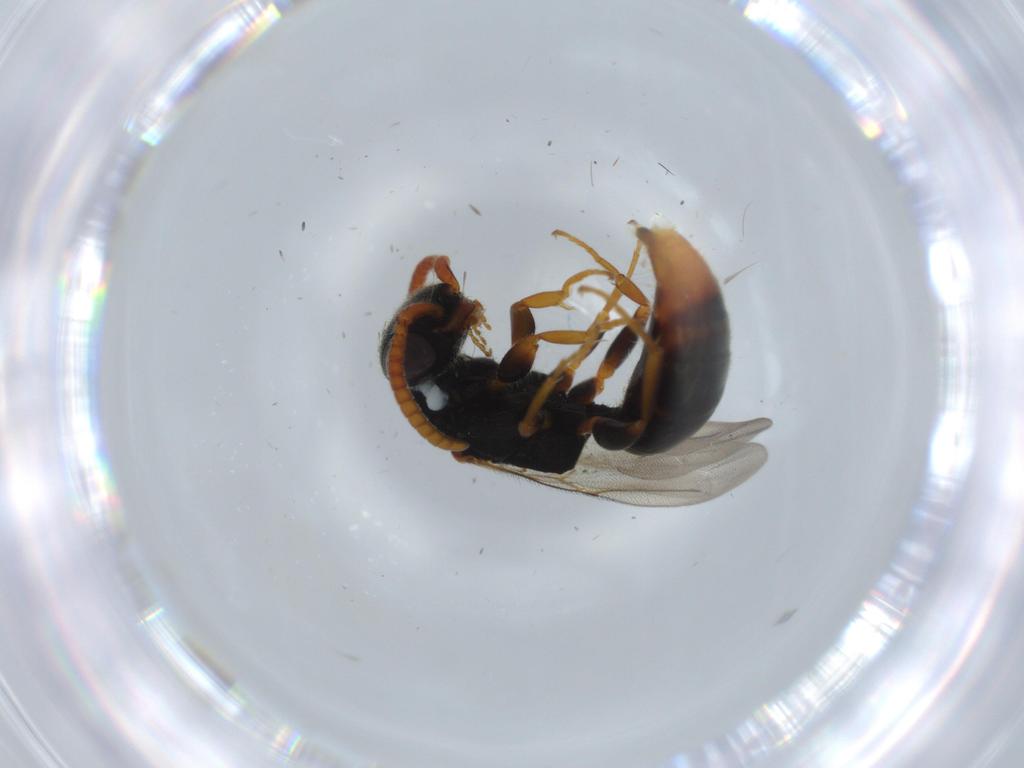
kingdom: Animalia
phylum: Arthropoda
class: Insecta
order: Hymenoptera
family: Bethylidae
